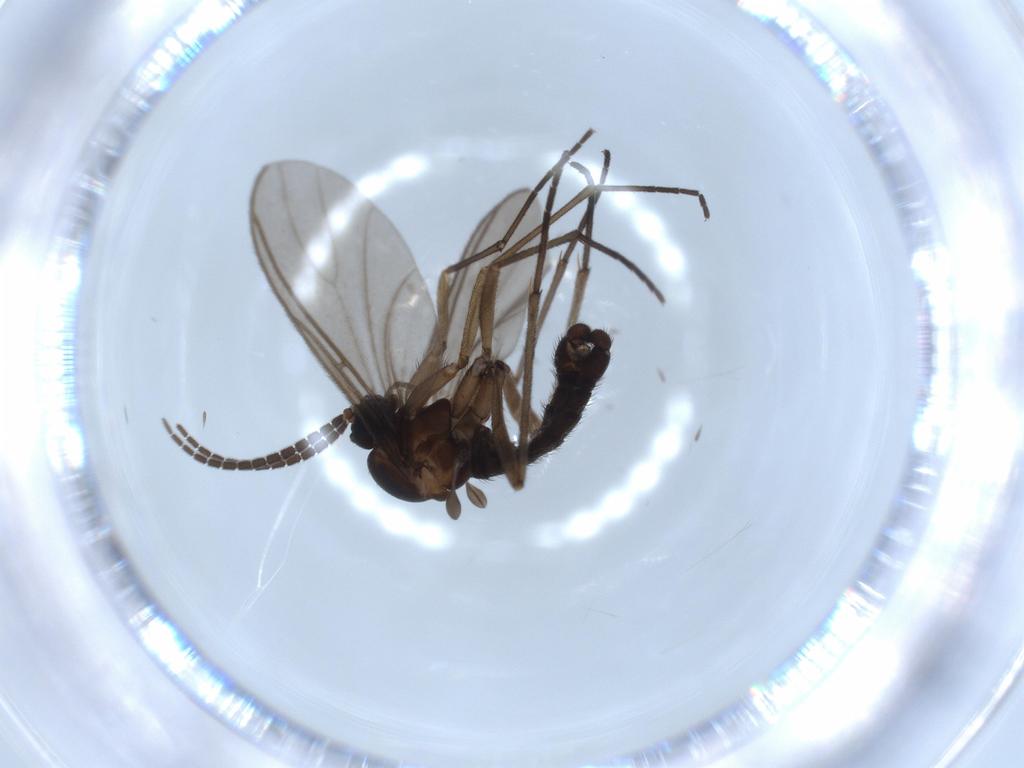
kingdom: Animalia
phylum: Arthropoda
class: Insecta
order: Diptera
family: Sciaridae
